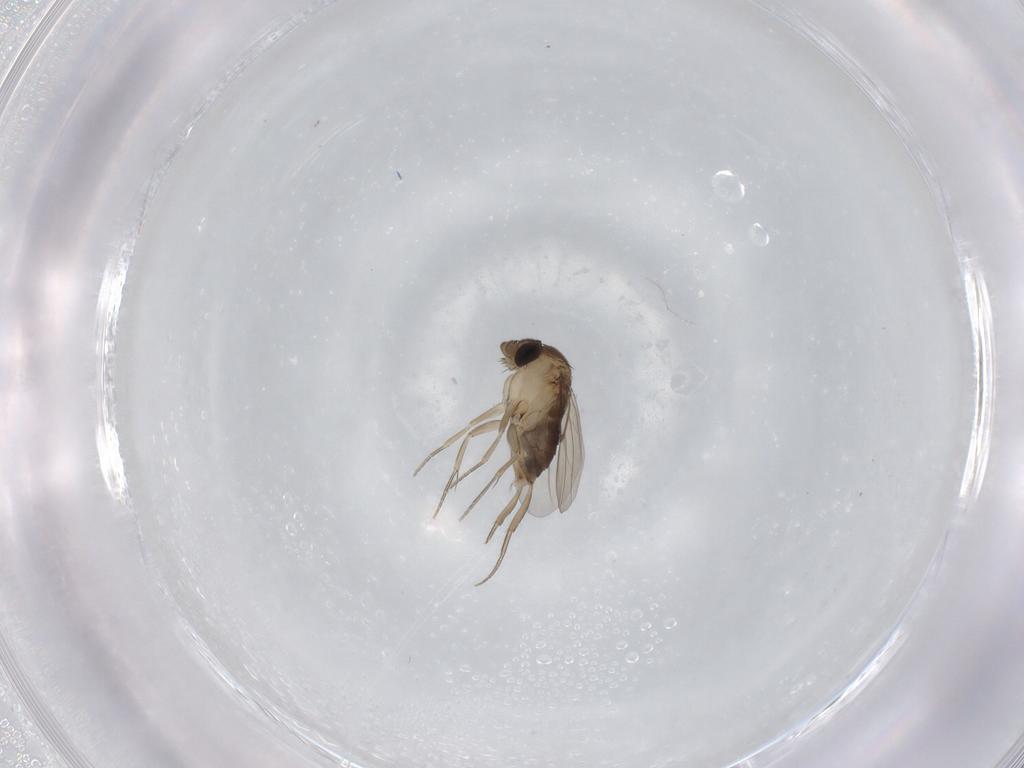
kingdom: Animalia
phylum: Arthropoda
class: Insecta
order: Diptera
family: Phoridae
